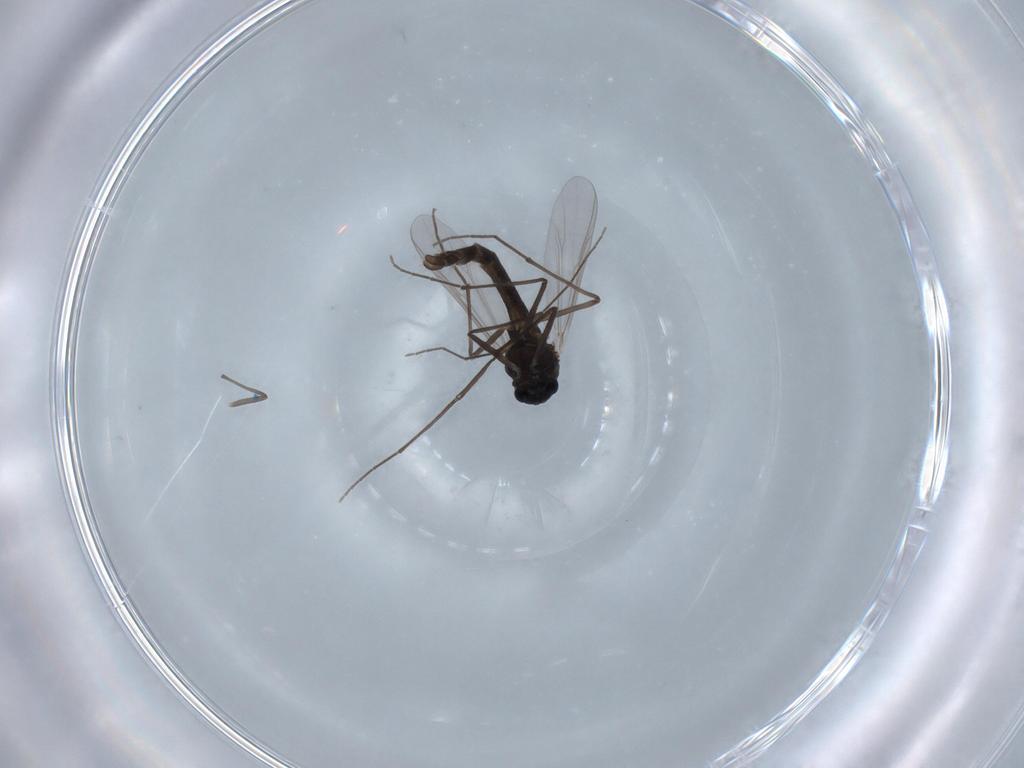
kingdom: Animalia
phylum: Arthropoda
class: Insecta
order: Diptera
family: Chironomidae
